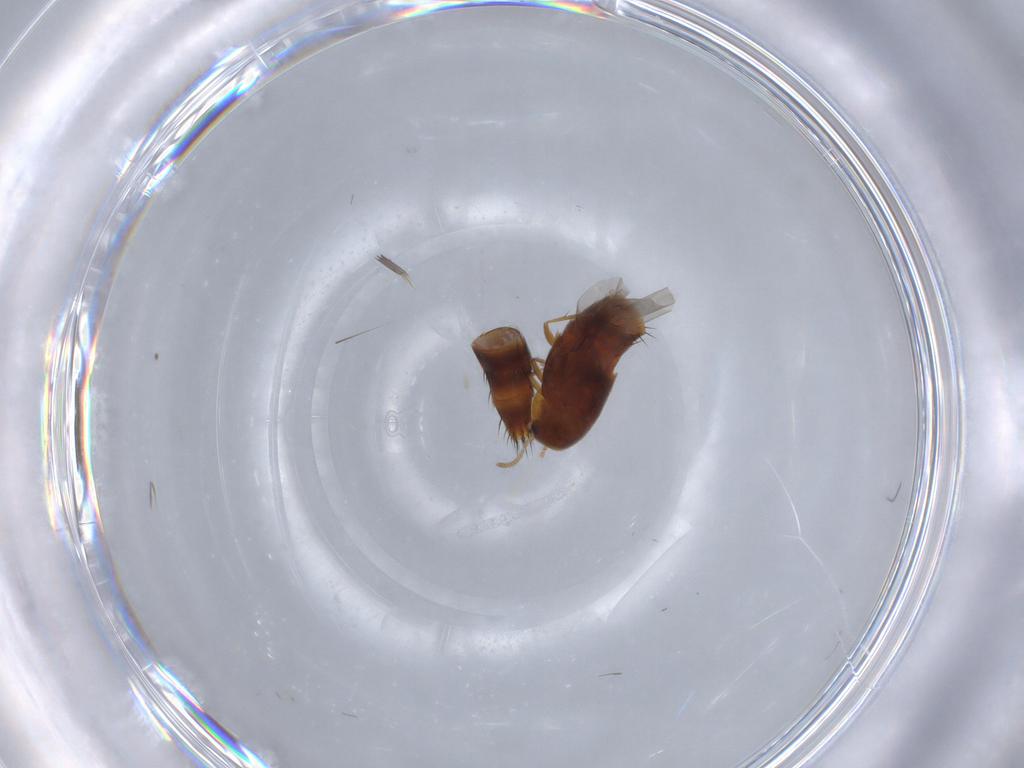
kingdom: Animalia
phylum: Arthropoda
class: Insecta
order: Coleoptera
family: Staphylinidae
